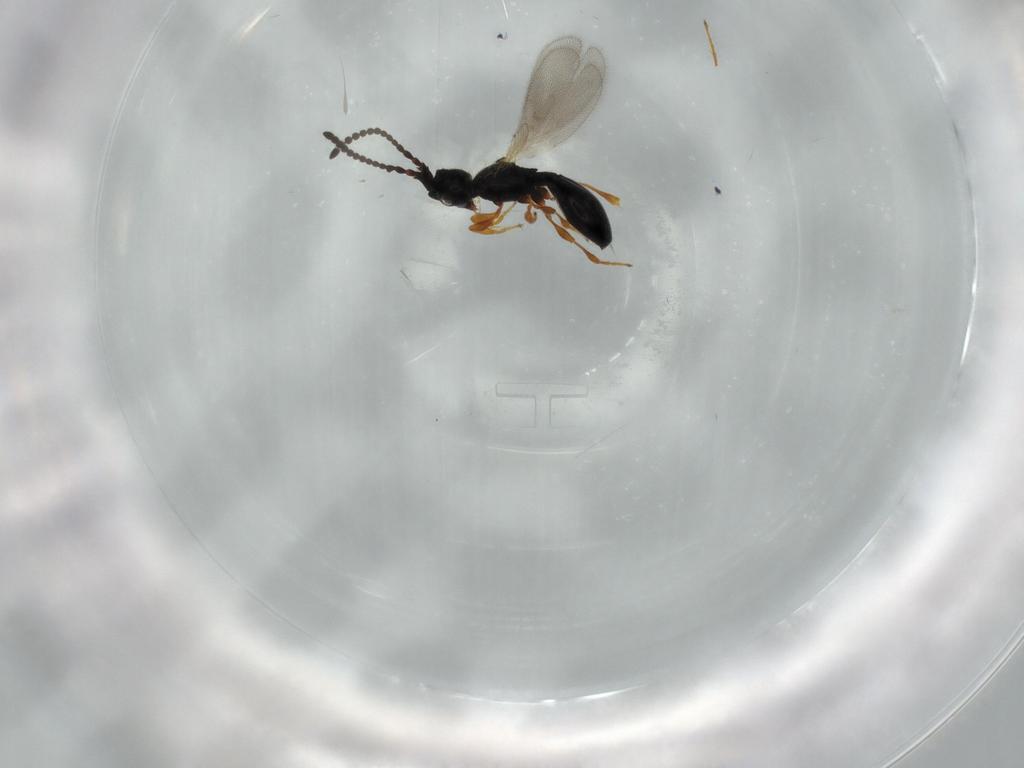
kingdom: Animalia
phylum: Arthropoda
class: Insecta
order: Hymenoptera
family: Diapriidae
